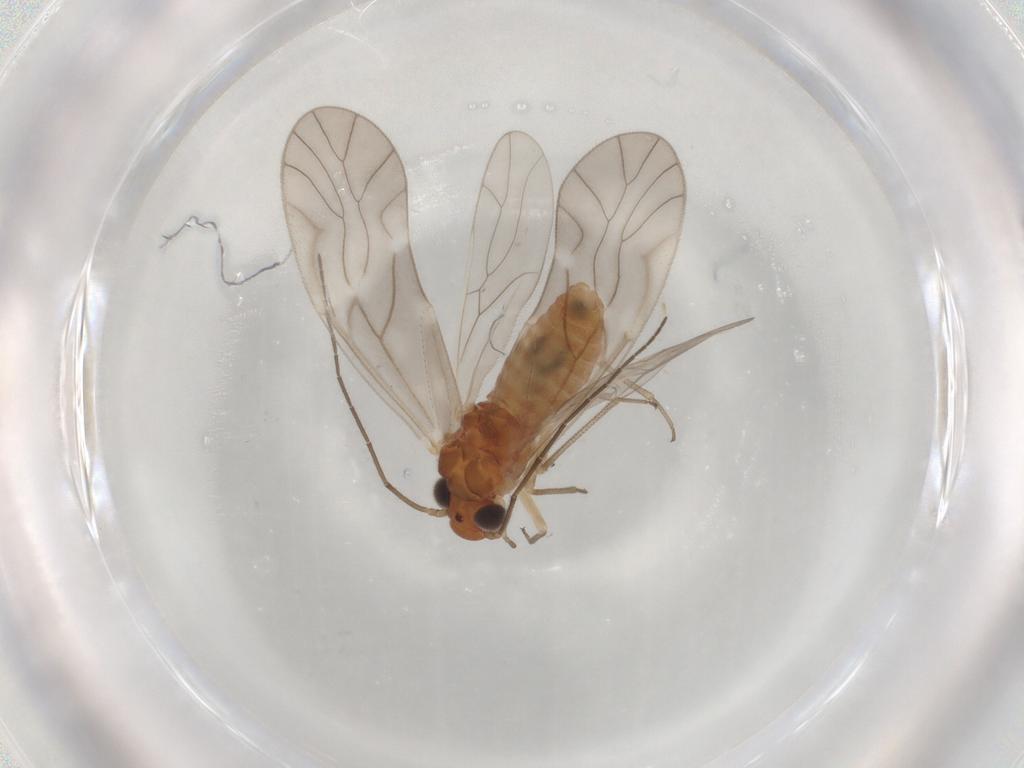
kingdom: Animalia
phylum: Arthropoda
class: Insecta
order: Psocodea
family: Caeciliusidae
